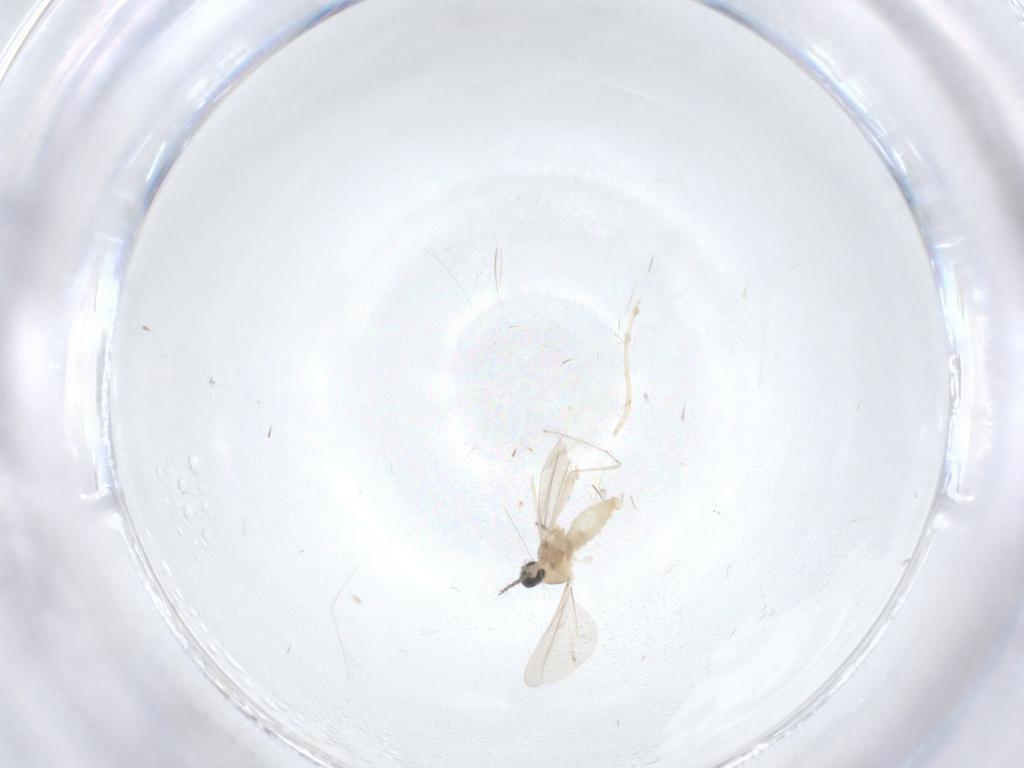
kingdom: Animalia
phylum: Arthropoda
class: Insecta
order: Diptera
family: Cecidomyiidae
